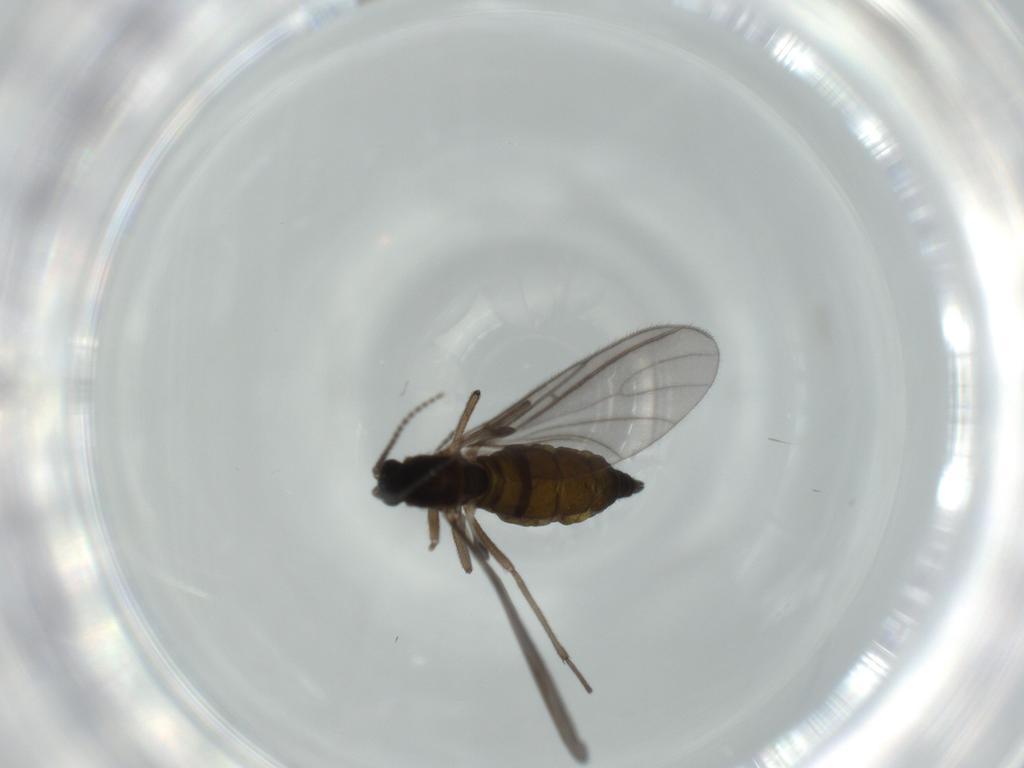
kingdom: Animalia
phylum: Arthropoda
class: Insecta
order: Diptera
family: Sciaridae
